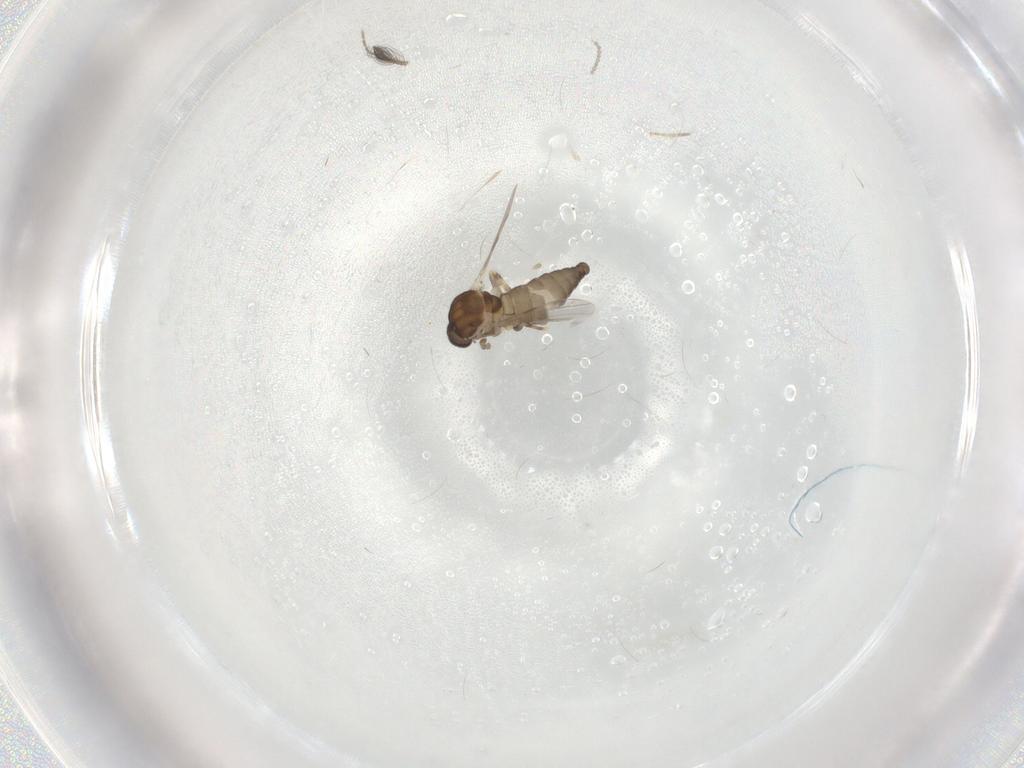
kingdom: Animalia
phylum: Arthropoda
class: Insecta
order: Diptera
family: Ceratopogonidae
